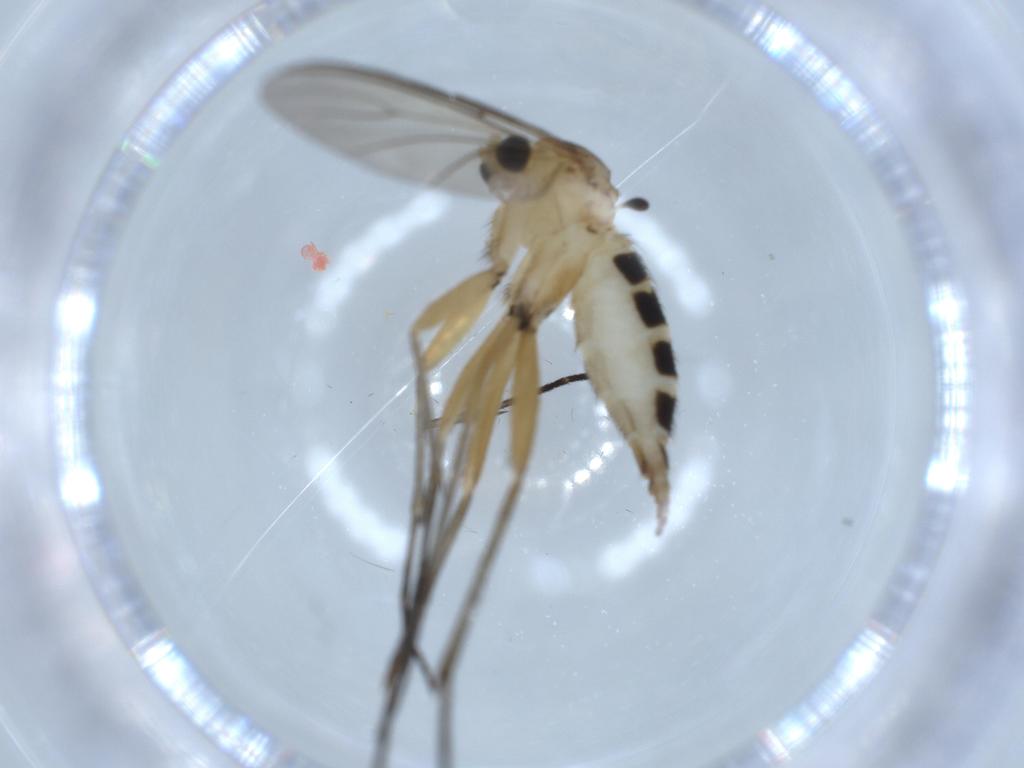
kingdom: Animalia
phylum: Arthropoda
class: Insecta
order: Diptera
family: Sciaridae
